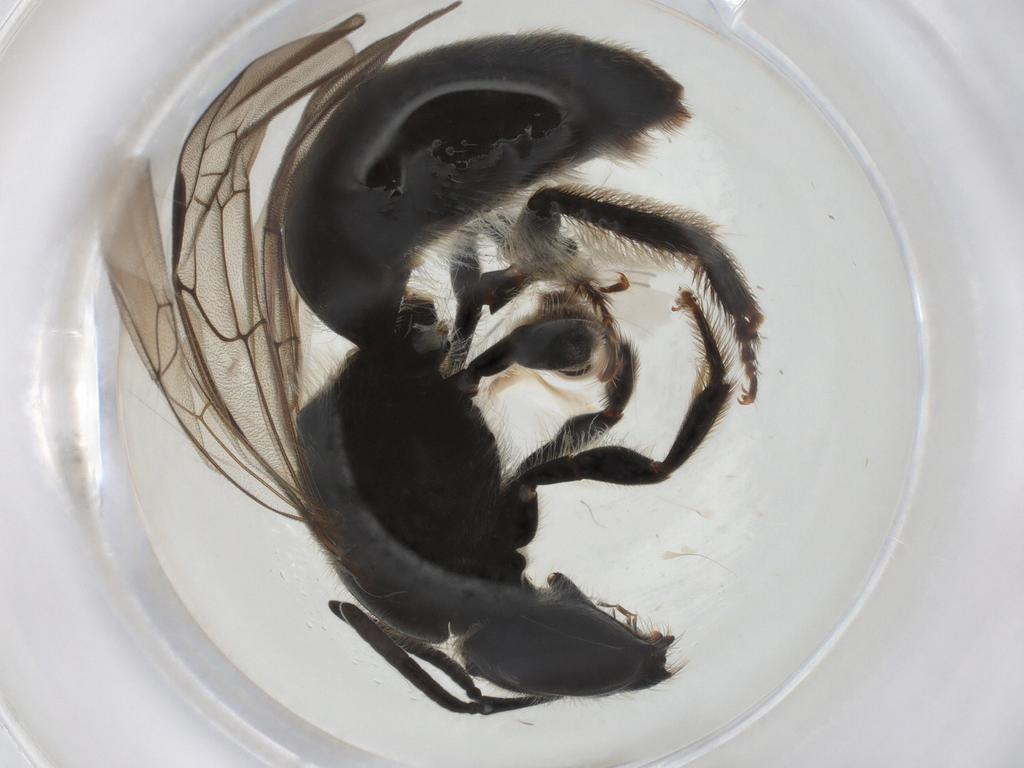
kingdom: Animalia
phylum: Arthropoda
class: Insecta
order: Hymenoptera
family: Halictidae
